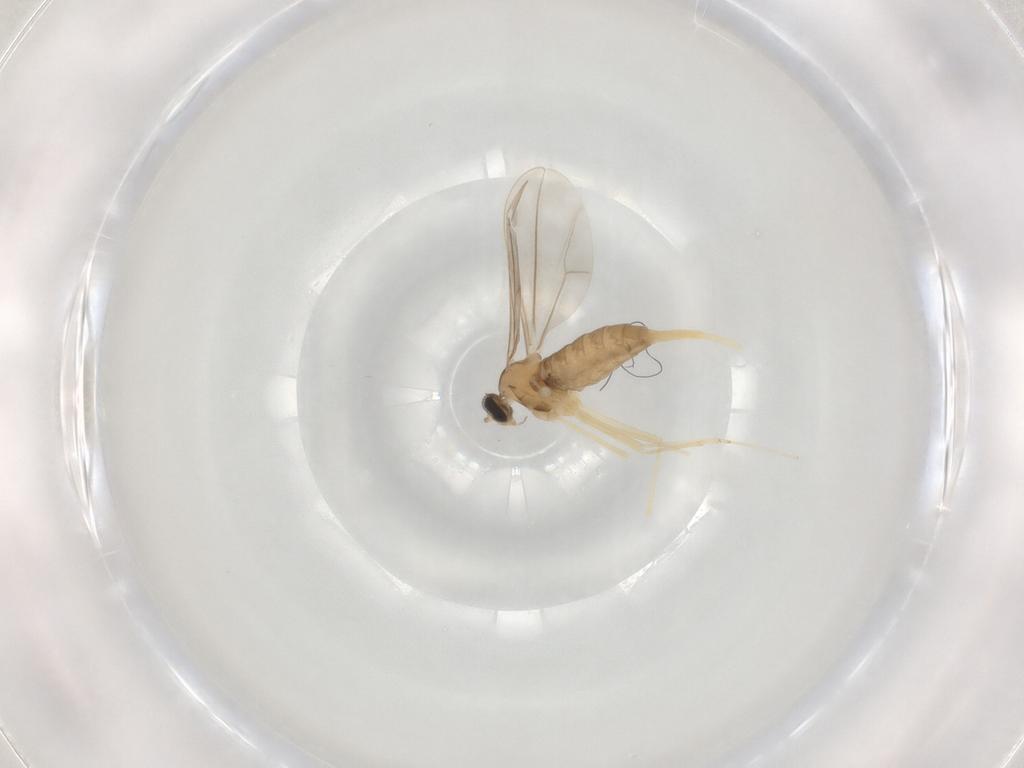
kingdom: Animalia
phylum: Arthropoda
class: Insecta
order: Diptera
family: Cecidomyiidae
